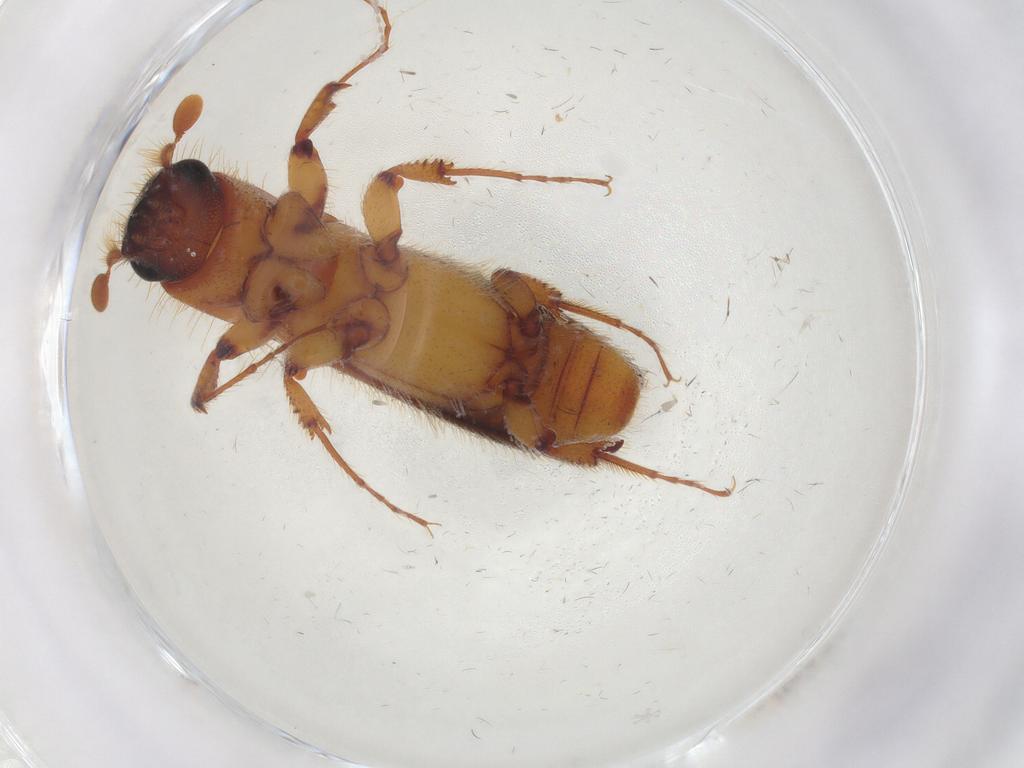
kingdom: Animalia
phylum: Arthropoda
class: Insecta
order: Coleoptera
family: Curculionidae
